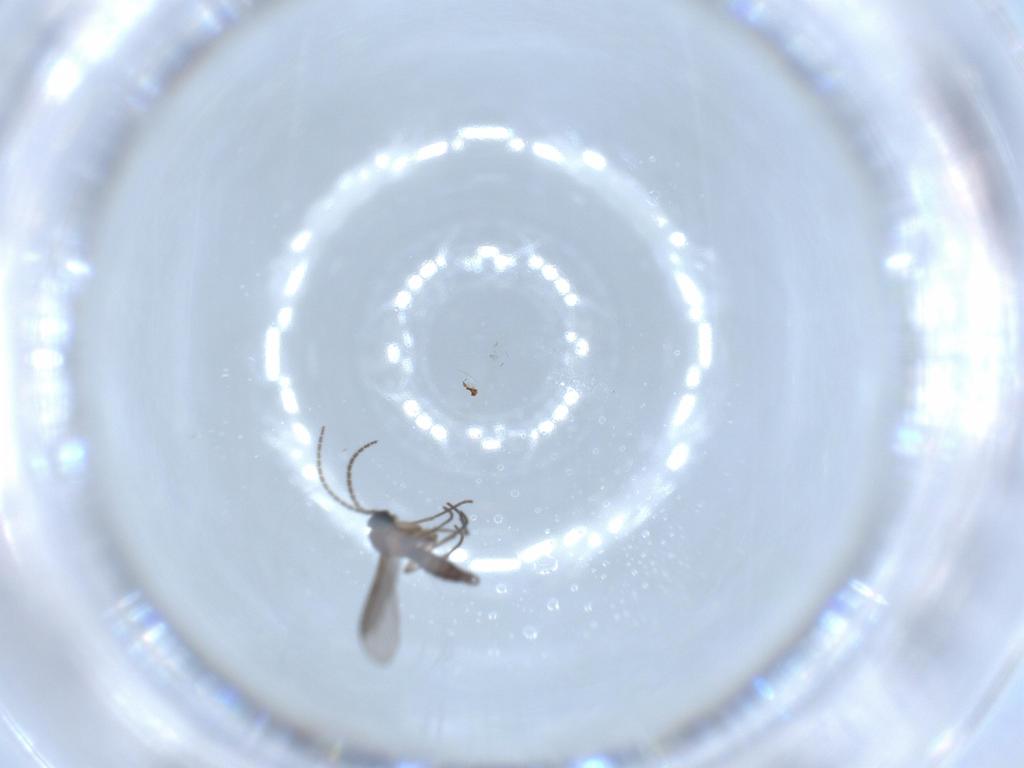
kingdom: Animalia
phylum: Arthropoda
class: Insecta
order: Diptera
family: Sciaridae
